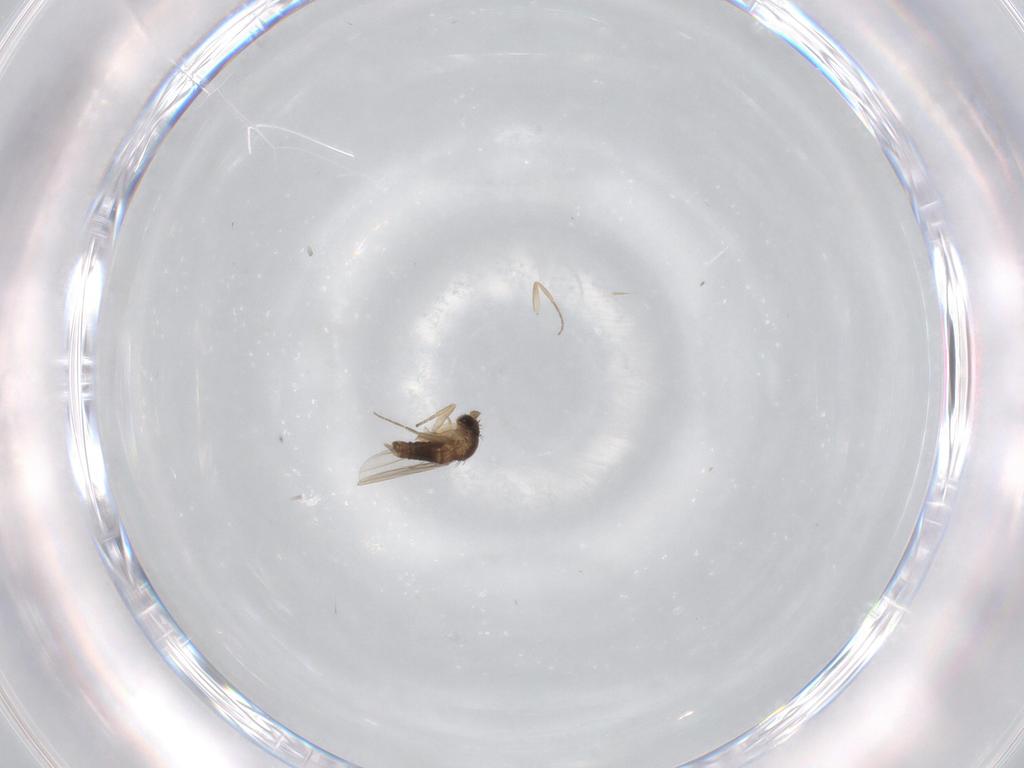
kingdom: Animalia
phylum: Arthropoda
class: Insecta
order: Diptera
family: Phoridae
